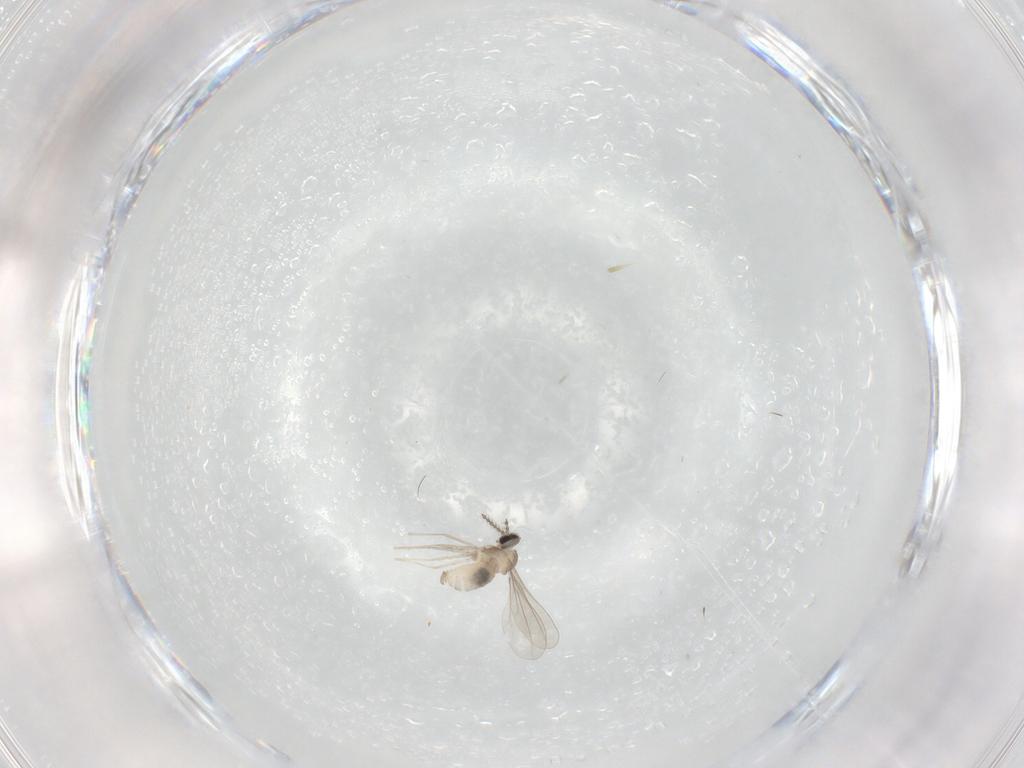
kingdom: Animalia
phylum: Arthropoda
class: Insecta
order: Diptera
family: Cecidomyiidae
